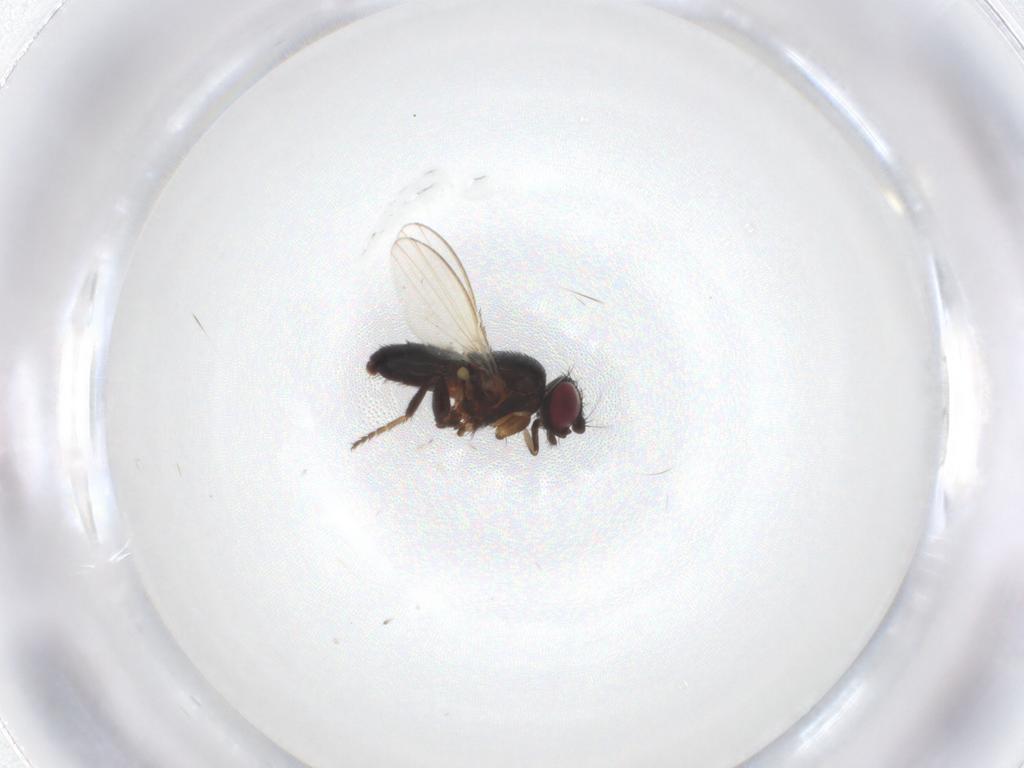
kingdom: Animalia
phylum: Arthropoda
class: Insecta
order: Diptera
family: Milichiidae
